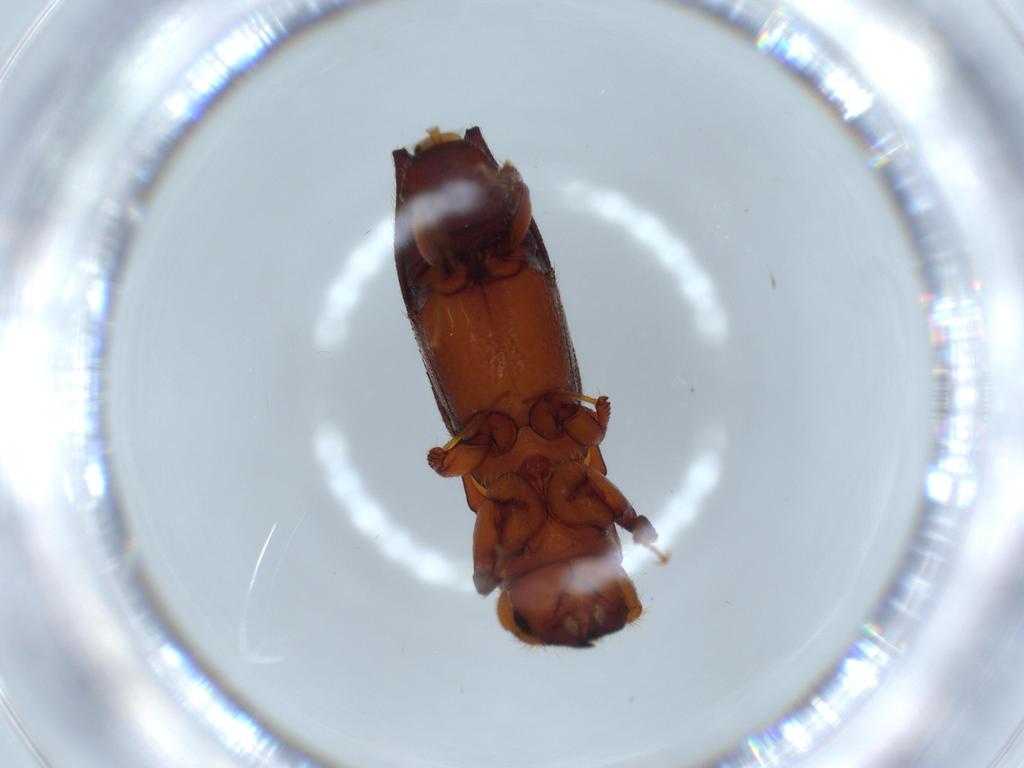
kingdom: Animalia
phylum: Arthropoda
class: Insecta
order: Coleoptera
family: Curculionidae
